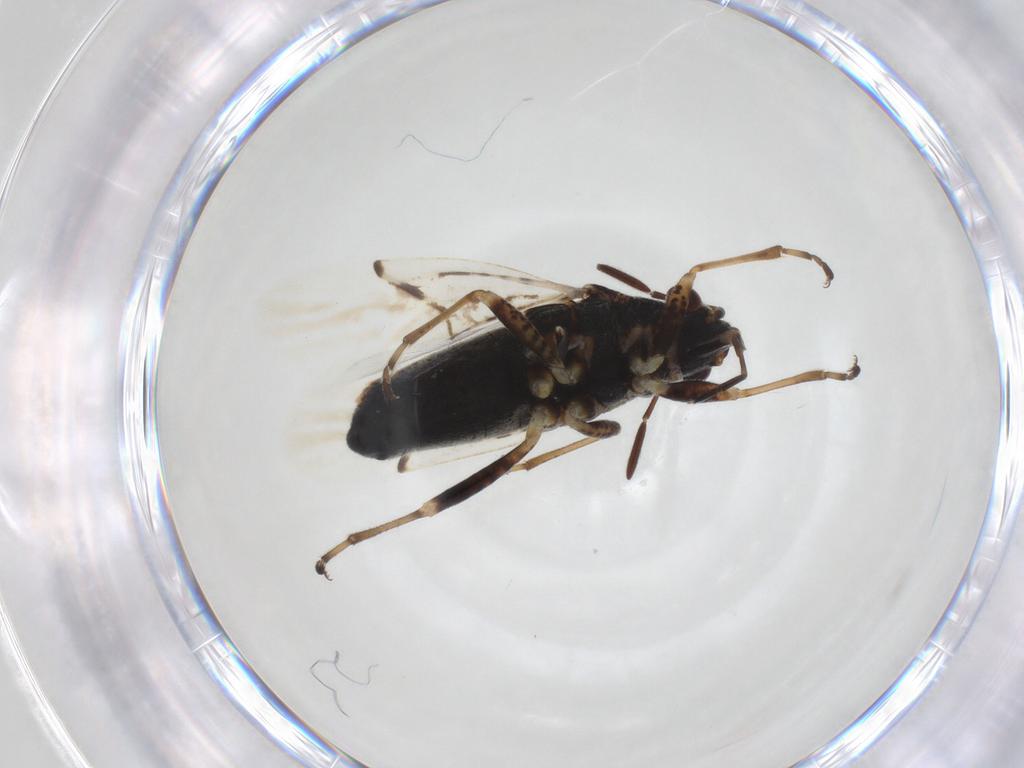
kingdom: Animalia
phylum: Arthropoda
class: Insecta
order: Hemiptera
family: Lygaeidae
